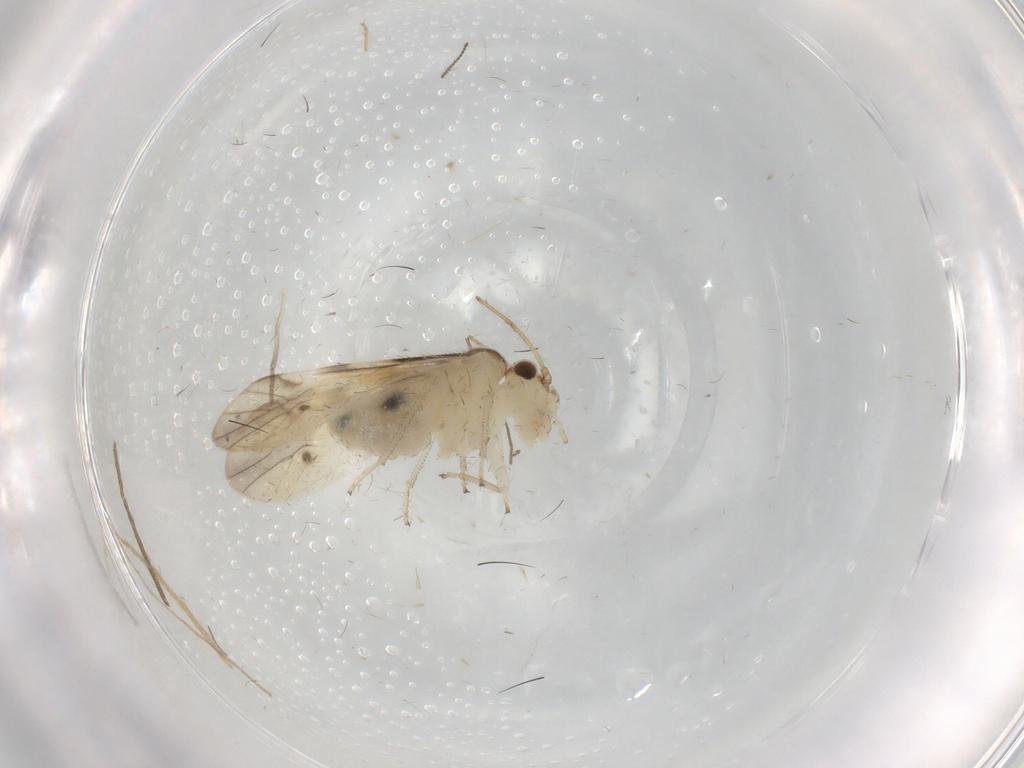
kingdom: Animalia
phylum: Arthropoda
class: Insecta
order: Psocodea
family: Caeciliusidae
